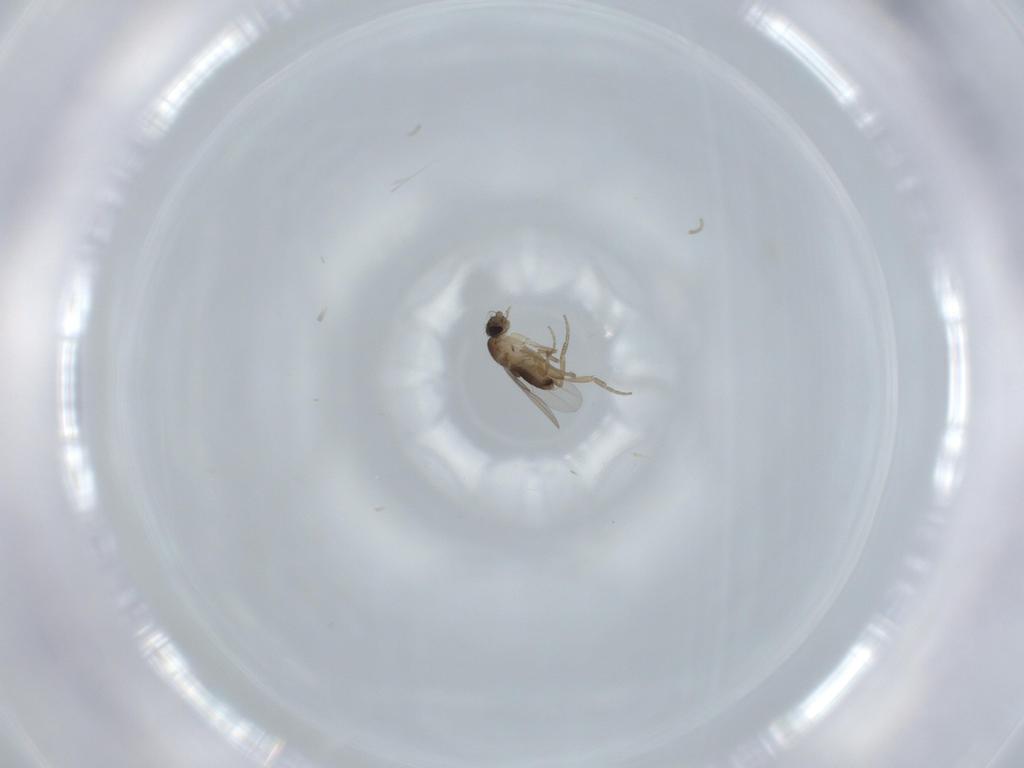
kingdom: Animalia
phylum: Arthropoda
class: Insecta
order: Diptera
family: Phoridae
